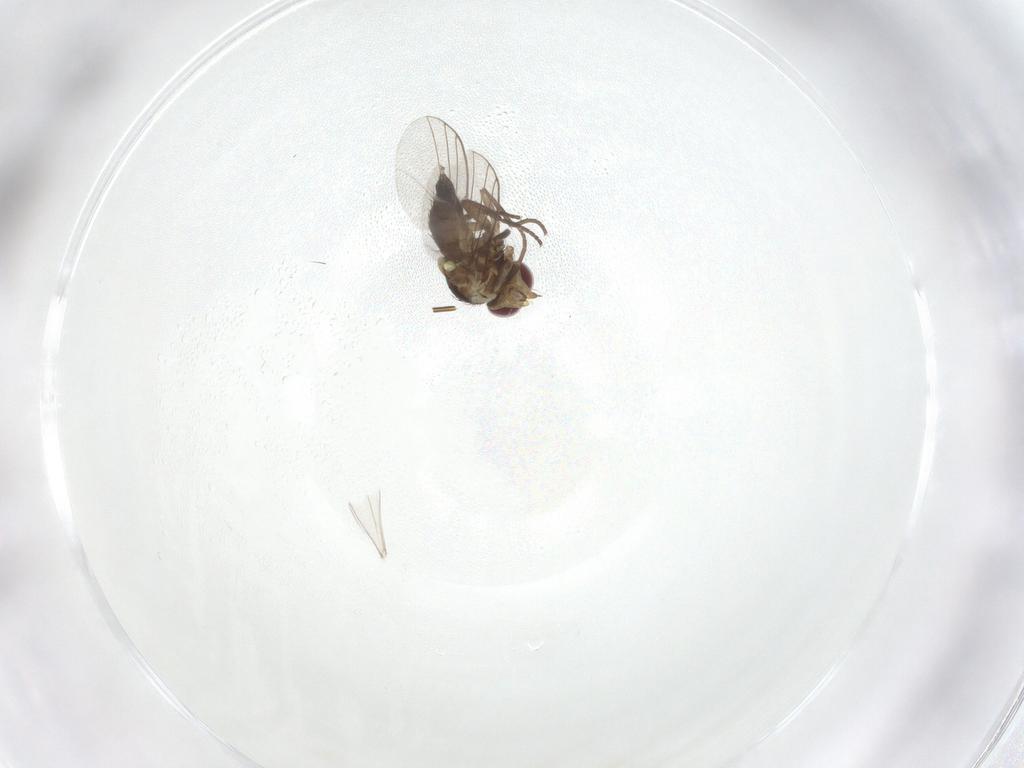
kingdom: Animalia
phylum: Arthropoda
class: Insecta
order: Diptera
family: Agromyzidae
